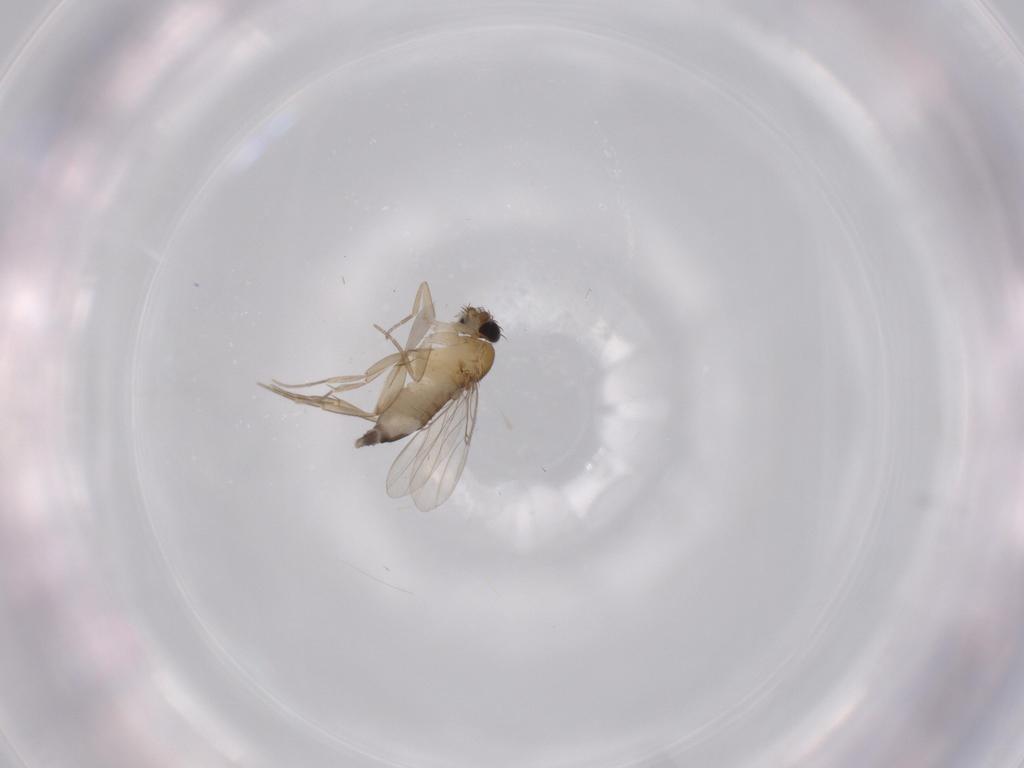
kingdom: Animalia
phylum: Arthropoda
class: Insecta
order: Diptera
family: Phoridae
